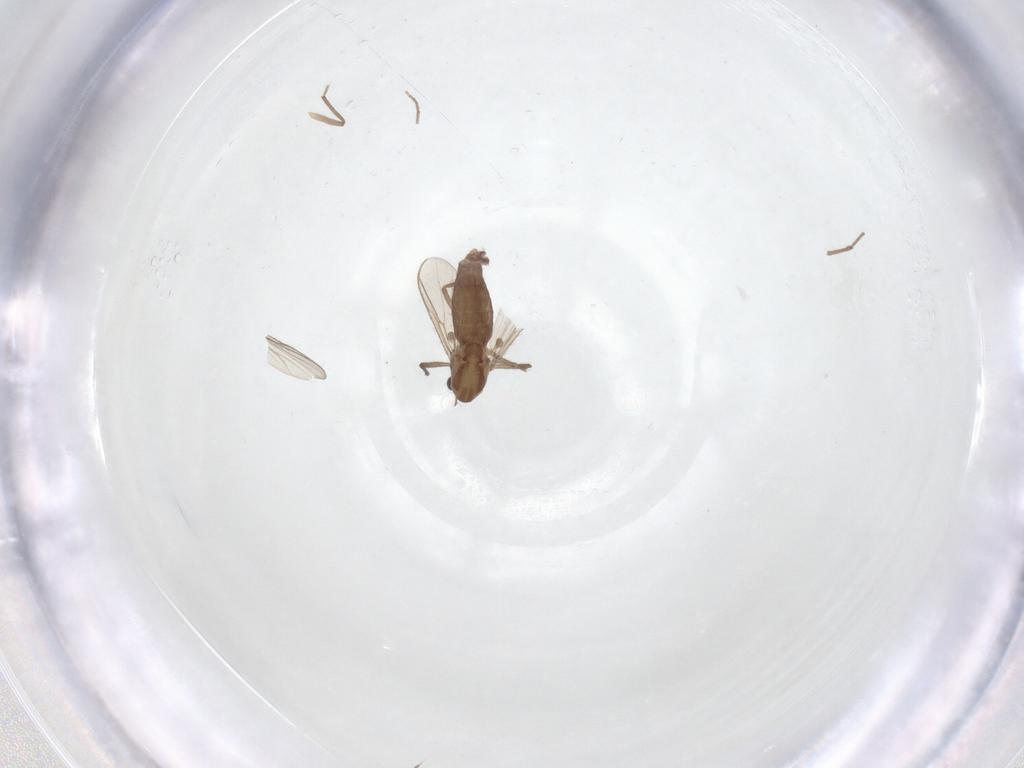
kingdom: Animalia
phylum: Arthropoda
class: Insecta
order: Diptera
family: Chironomidae
